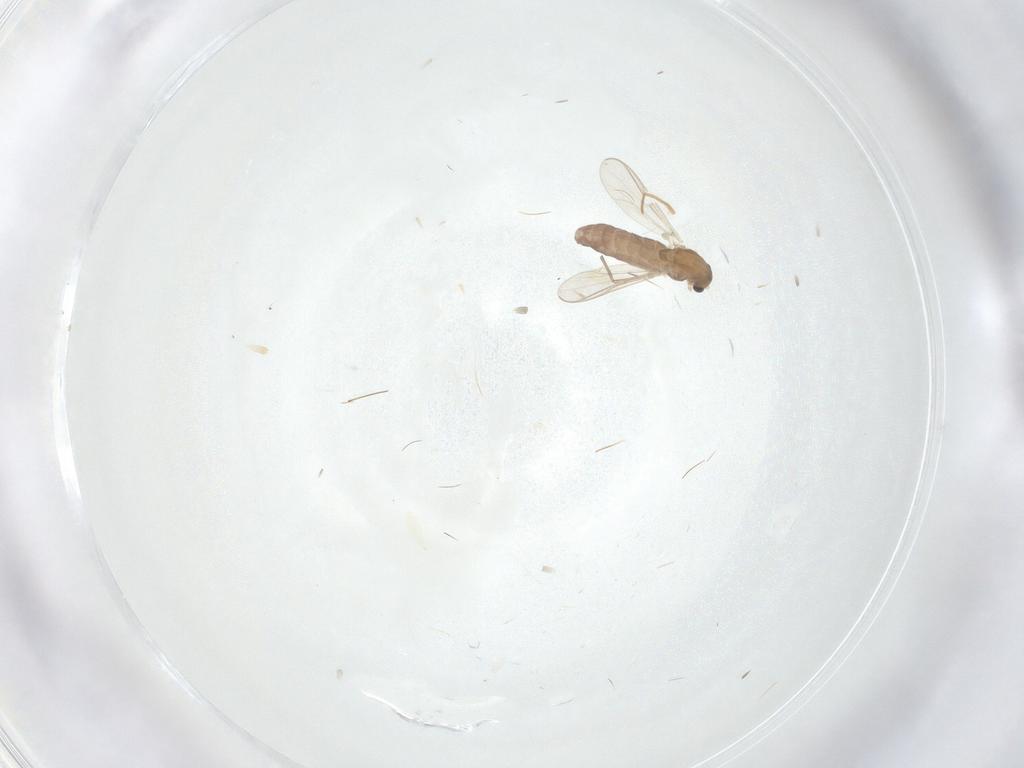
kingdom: Animalia
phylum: Arthropoda
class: Insecta
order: Diptera
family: Chironomidae
